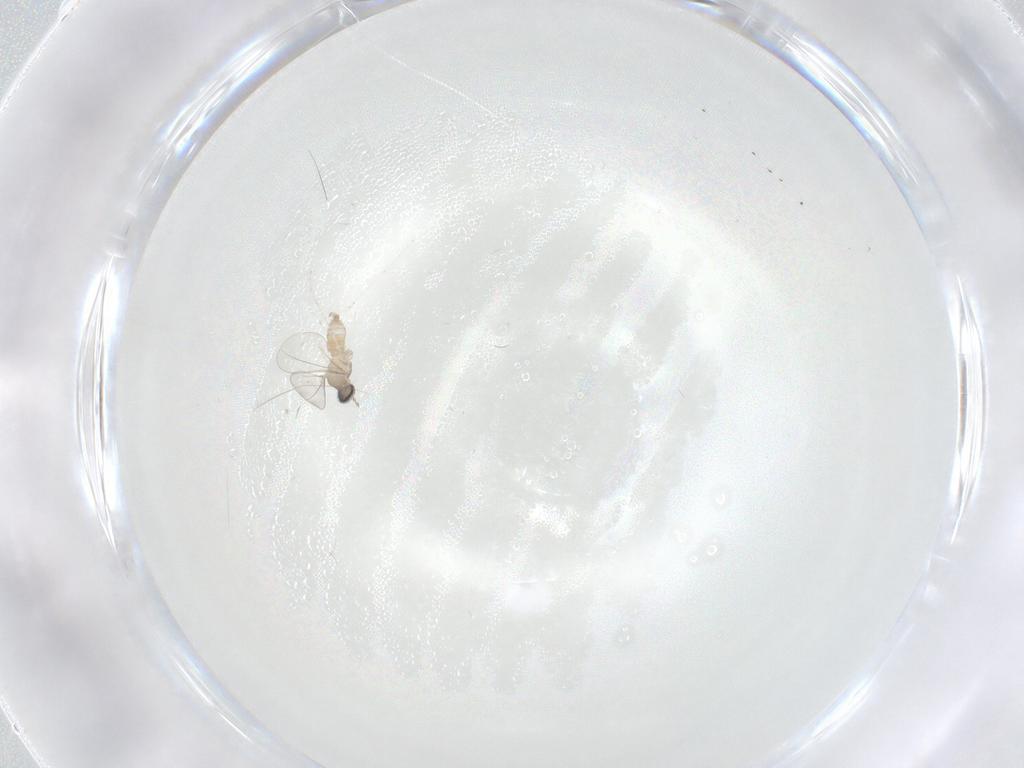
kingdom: Animalia
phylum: Arthropoda
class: Insecta
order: Diptera
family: Cecidomyiidae
